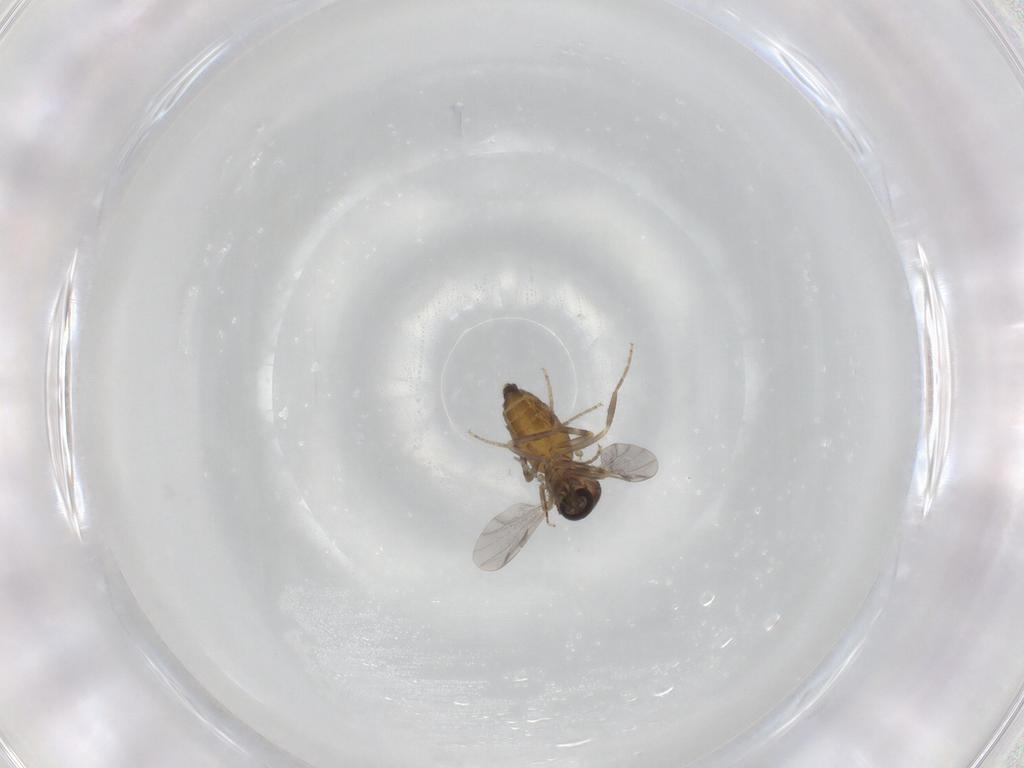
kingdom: Animalia
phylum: Arthropoda
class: Insecta
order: Diptera
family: Ceratopogonidae
